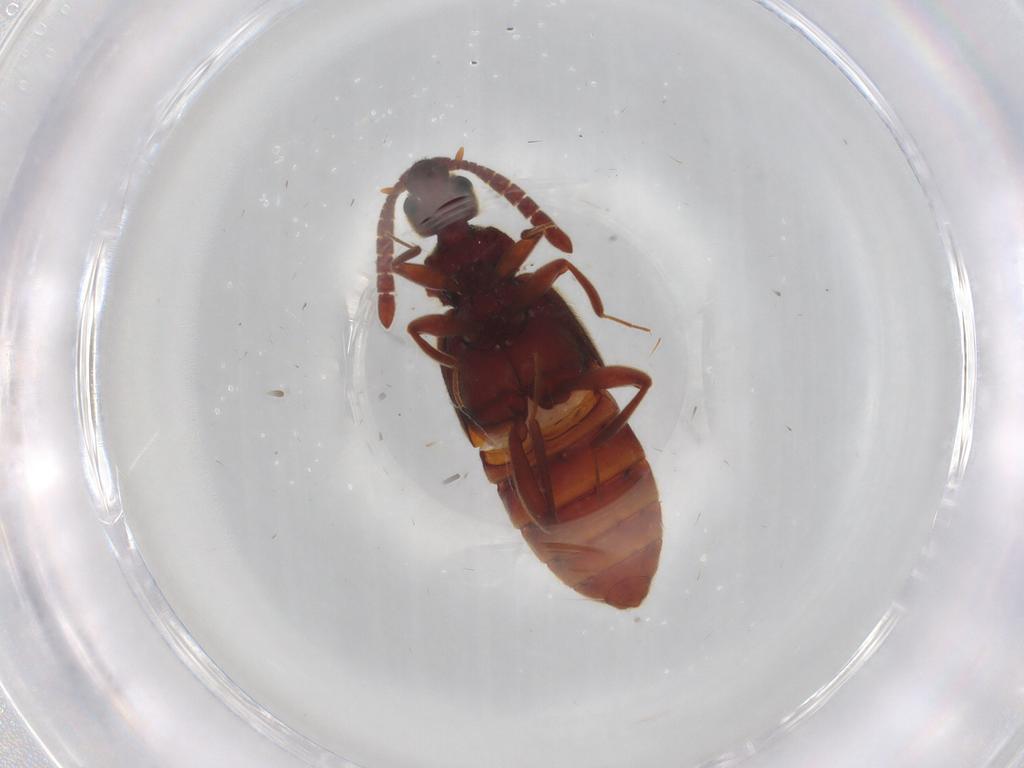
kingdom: Animalia
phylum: Arthropoda
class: Insecta
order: Coleoptera
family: Staphylinidae
